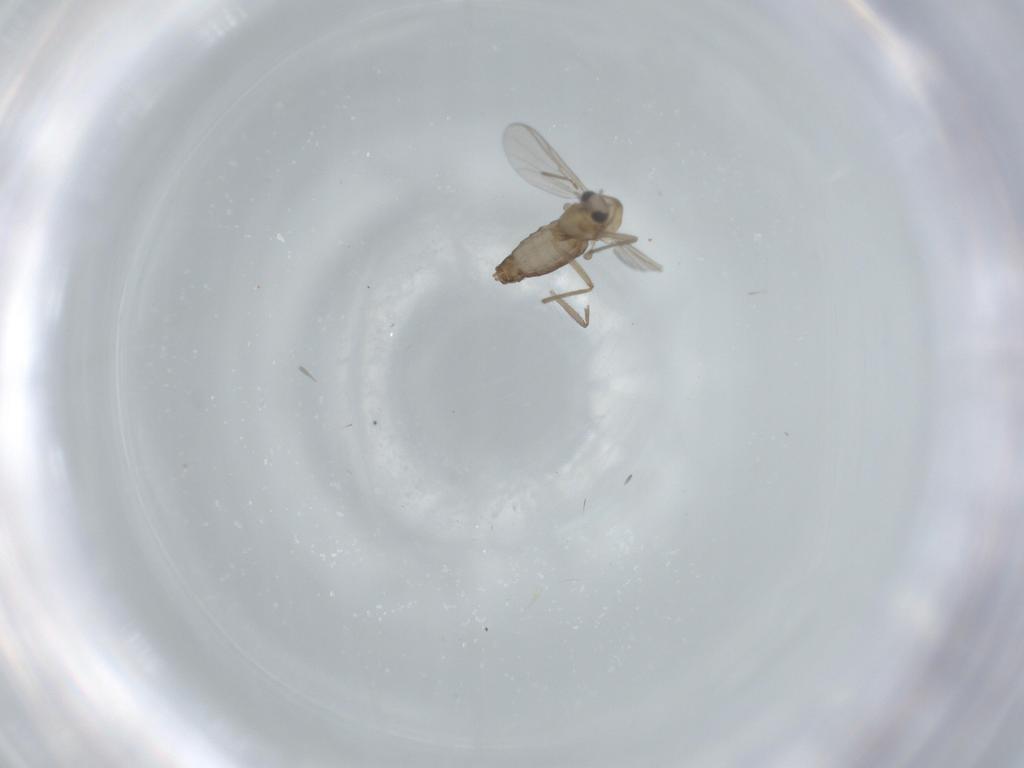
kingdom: Animalia
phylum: Arthropoda
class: Insecta
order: Diptera
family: Chironomidae
